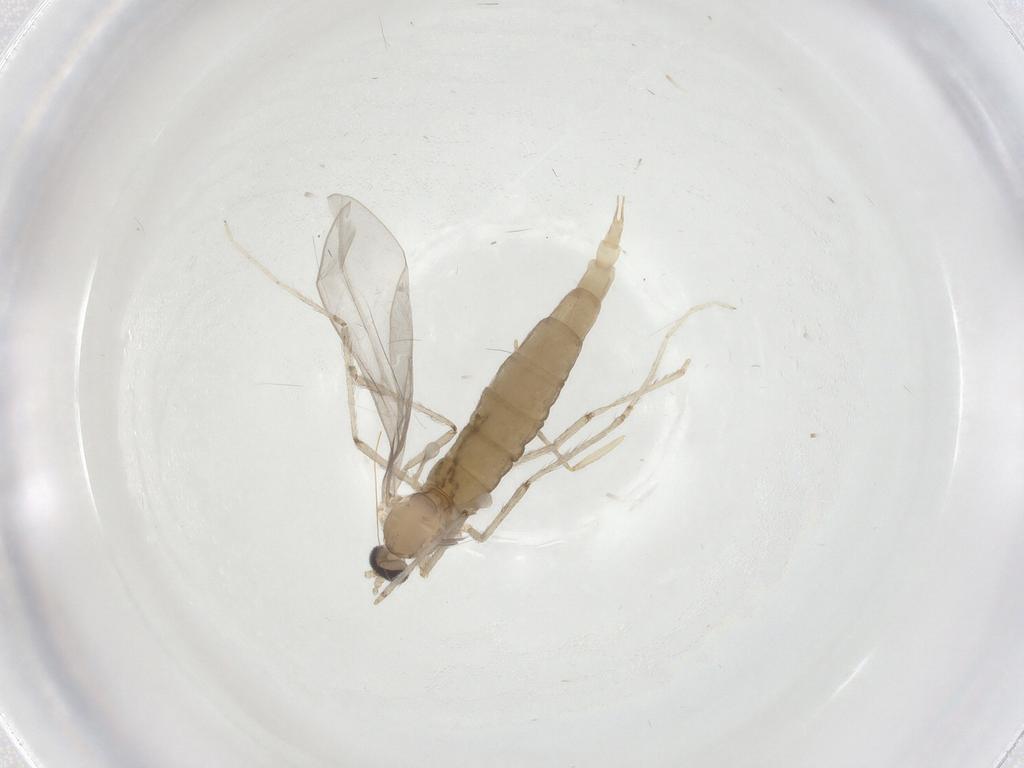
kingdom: Animalia
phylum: Arthropoda
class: Insecta
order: Diptera
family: Cecidomyiidae
